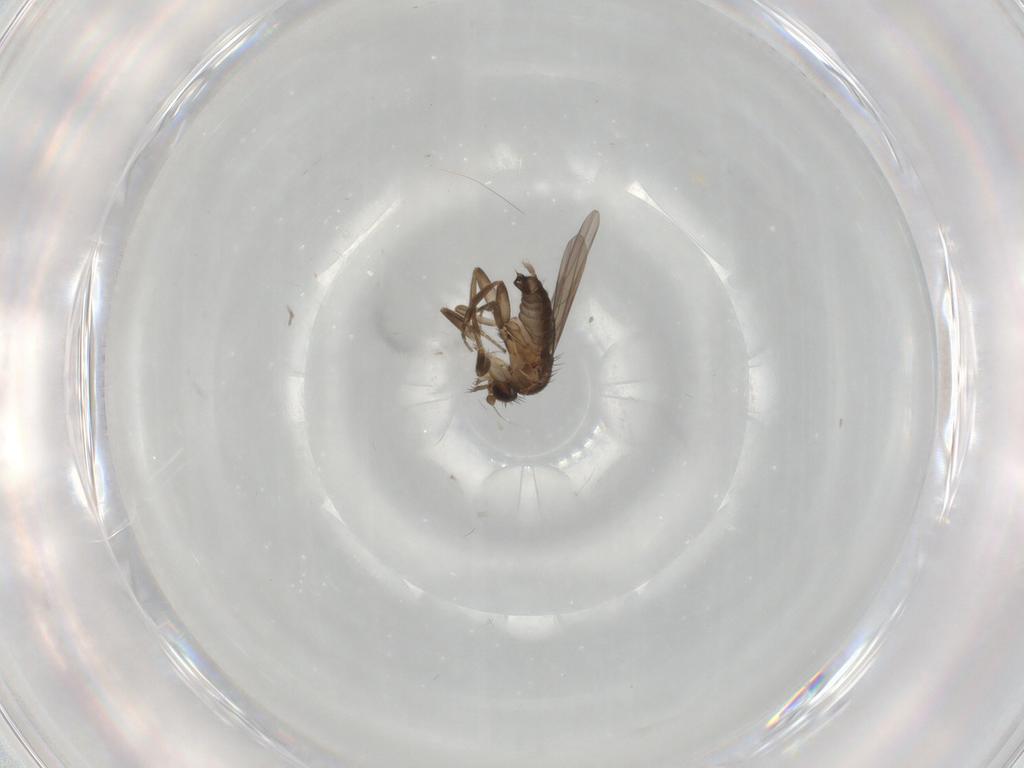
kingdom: Animalia
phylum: Arthropoda
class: Insecta
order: Diptera
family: Phoridae
